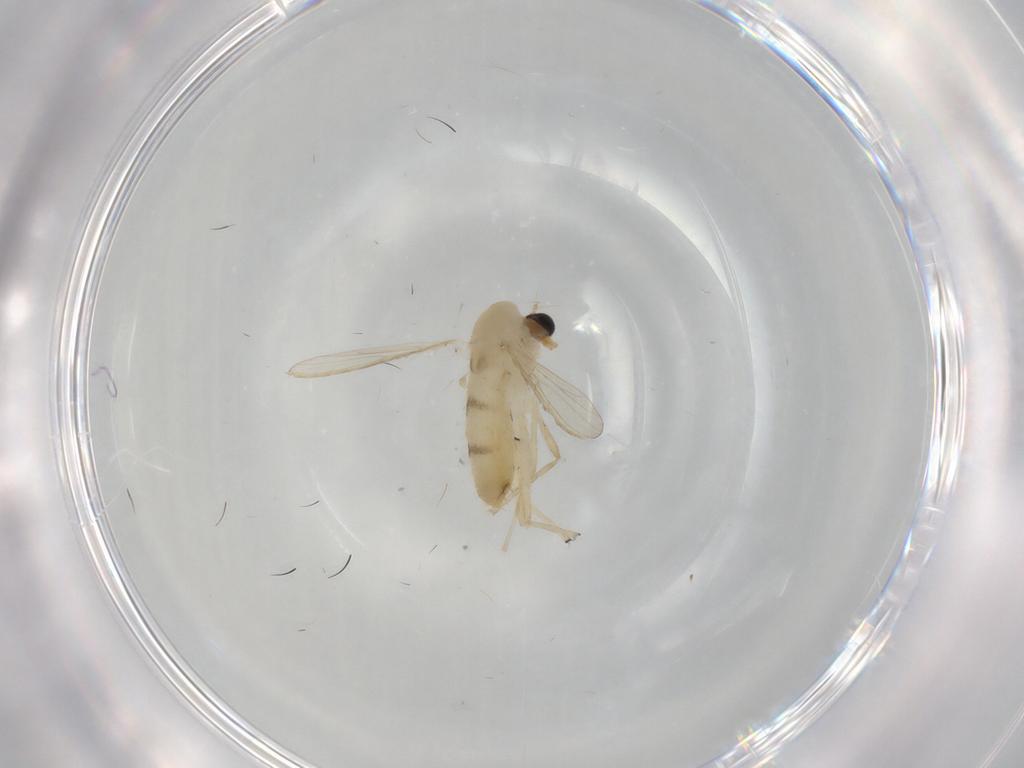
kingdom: Animalia
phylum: Arthropoda
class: Insecta
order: Diptera
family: Chironomidae
